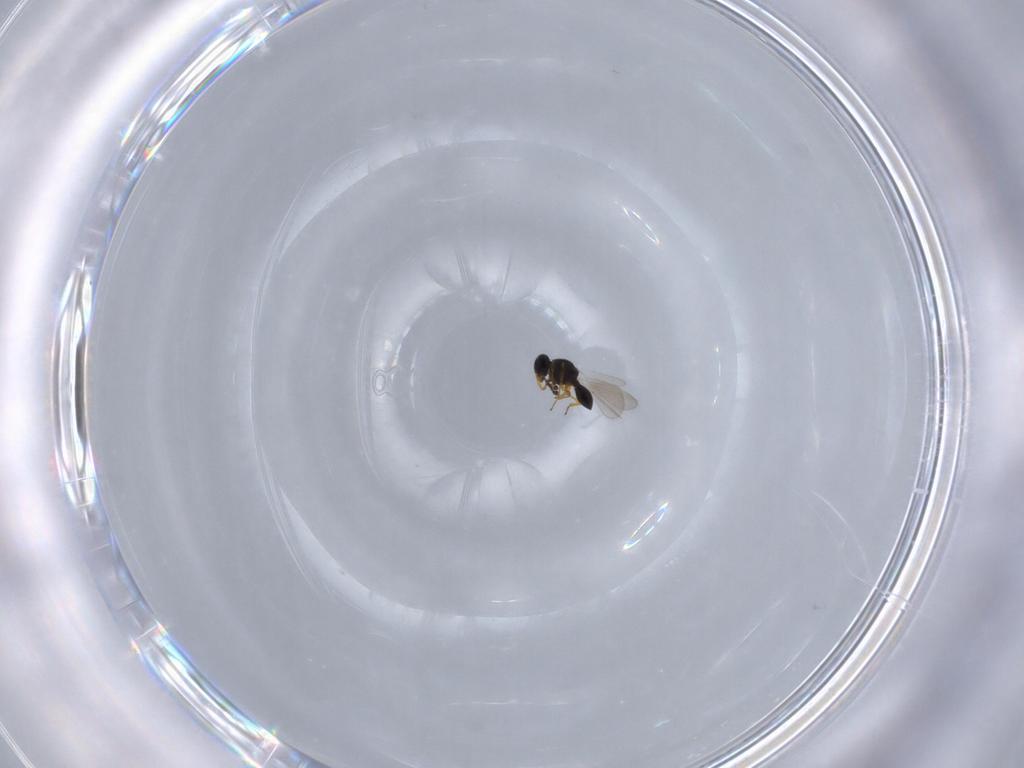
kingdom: Animalia
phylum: Arthropoda
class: Insecta
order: Hymenoptera
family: Platygastridae
